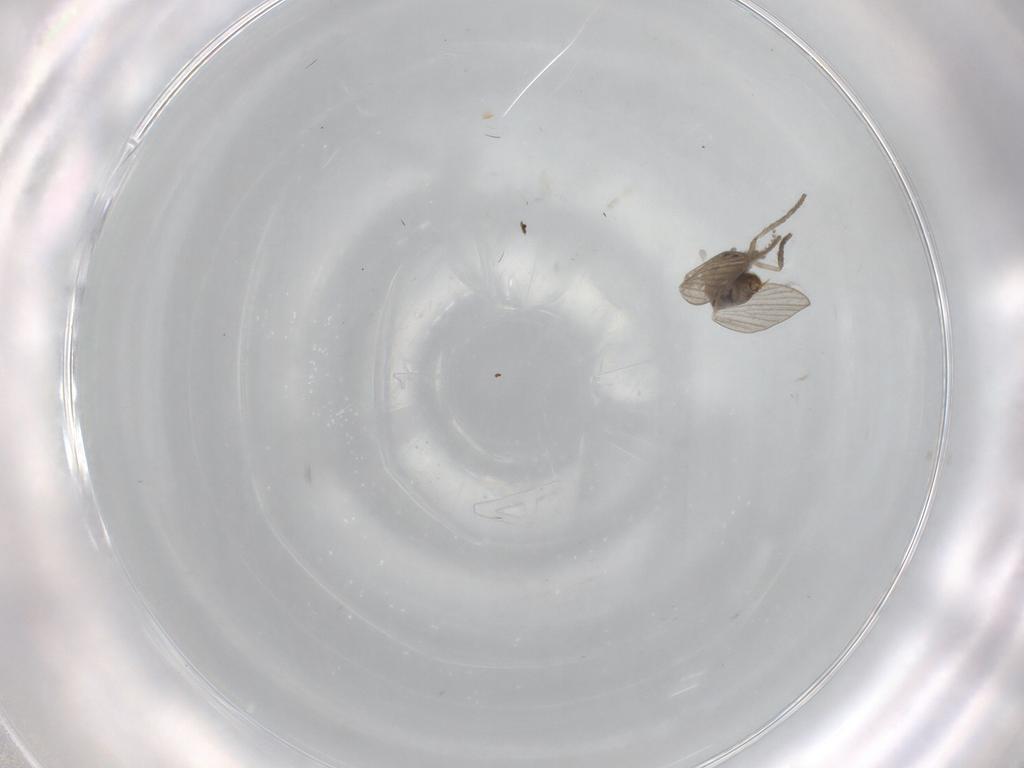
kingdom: Animalia
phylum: Arthropoda
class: Insecta
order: Diptera
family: Psychodidae
